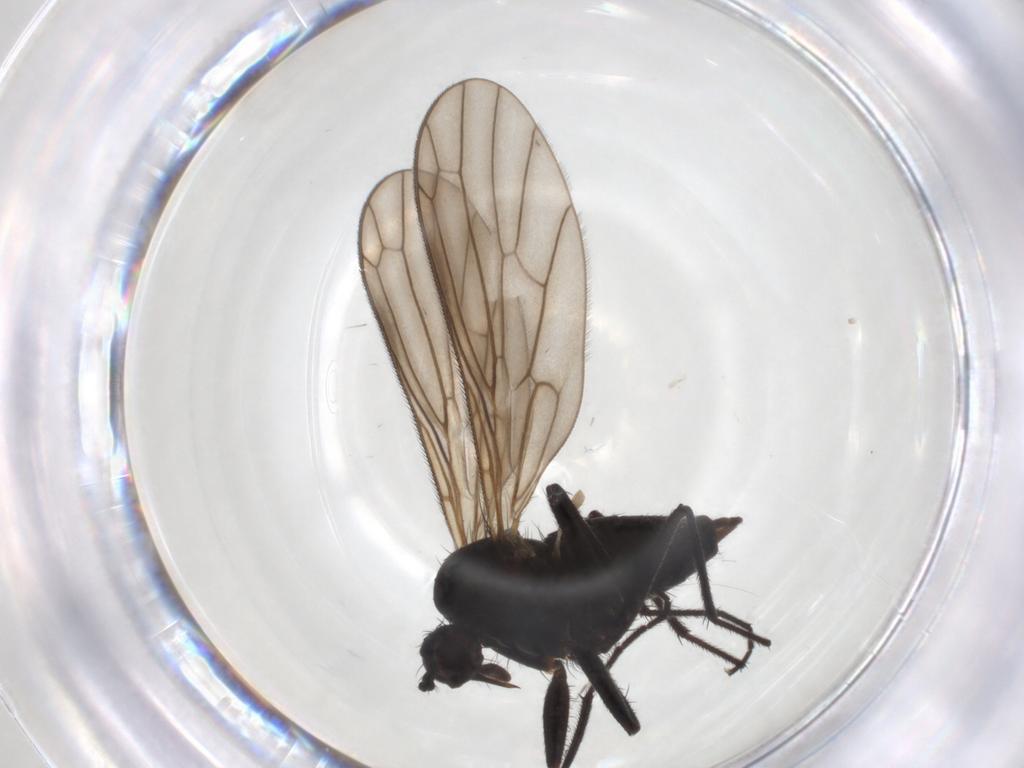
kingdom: Animalia
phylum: Arthropoda
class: Insecta
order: Diptera
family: Empididae
